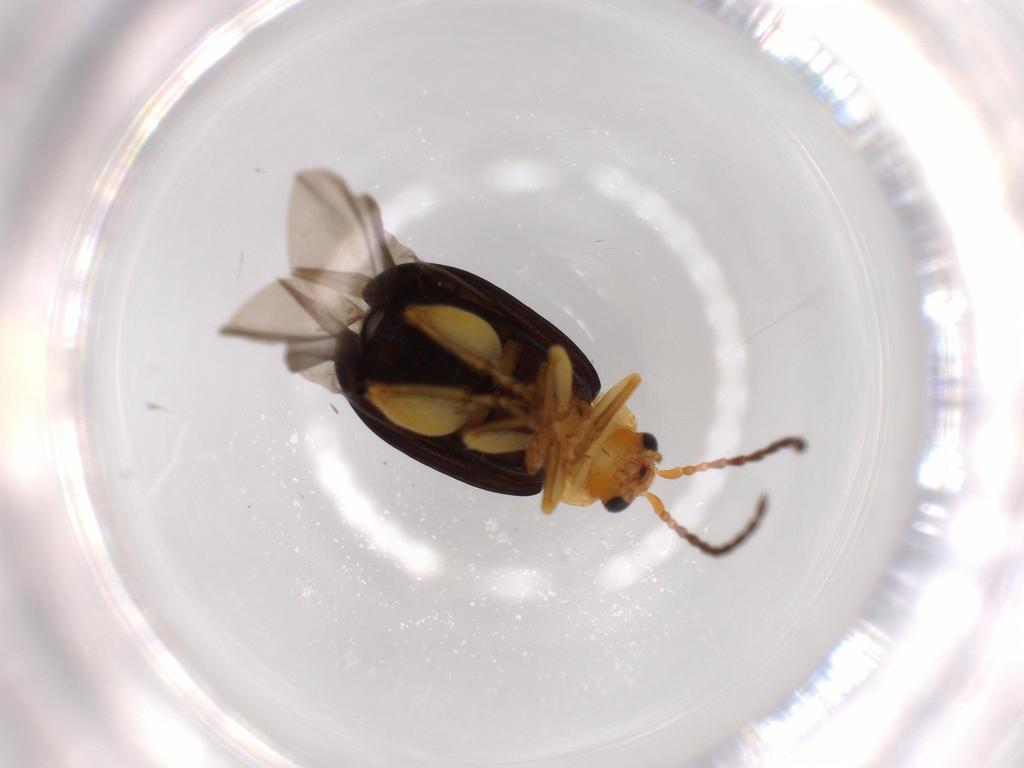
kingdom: Animalia
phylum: Arthropoda
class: Insecta
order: Coleoptera
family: Chrysomelidae
